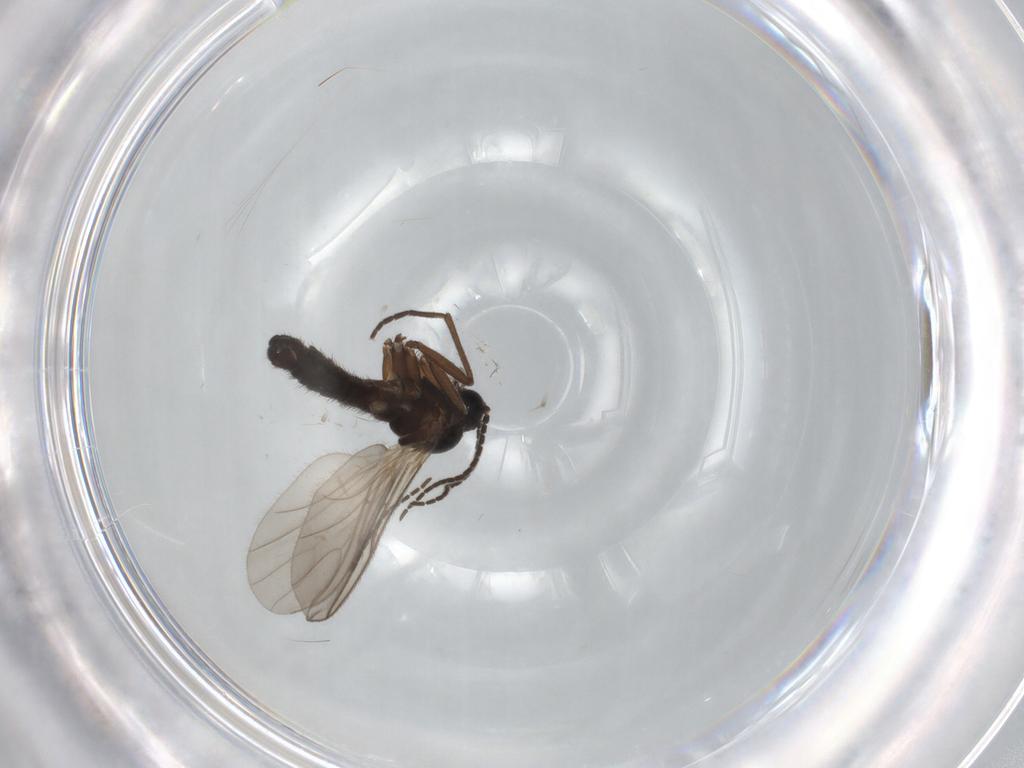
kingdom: Animalia
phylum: Arthropoda
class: Insecta
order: Diptera
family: Sciaridae
